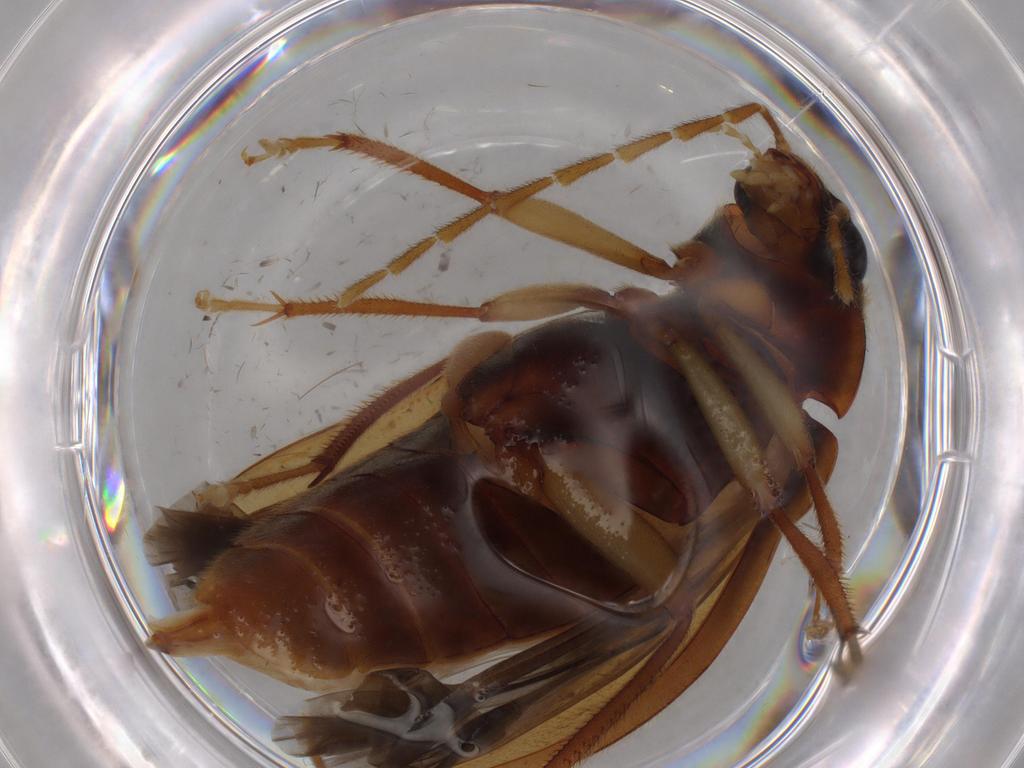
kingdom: Animalia
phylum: Arthropoda
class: Insecta
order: Coleoptera
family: Ptilodactylidae
